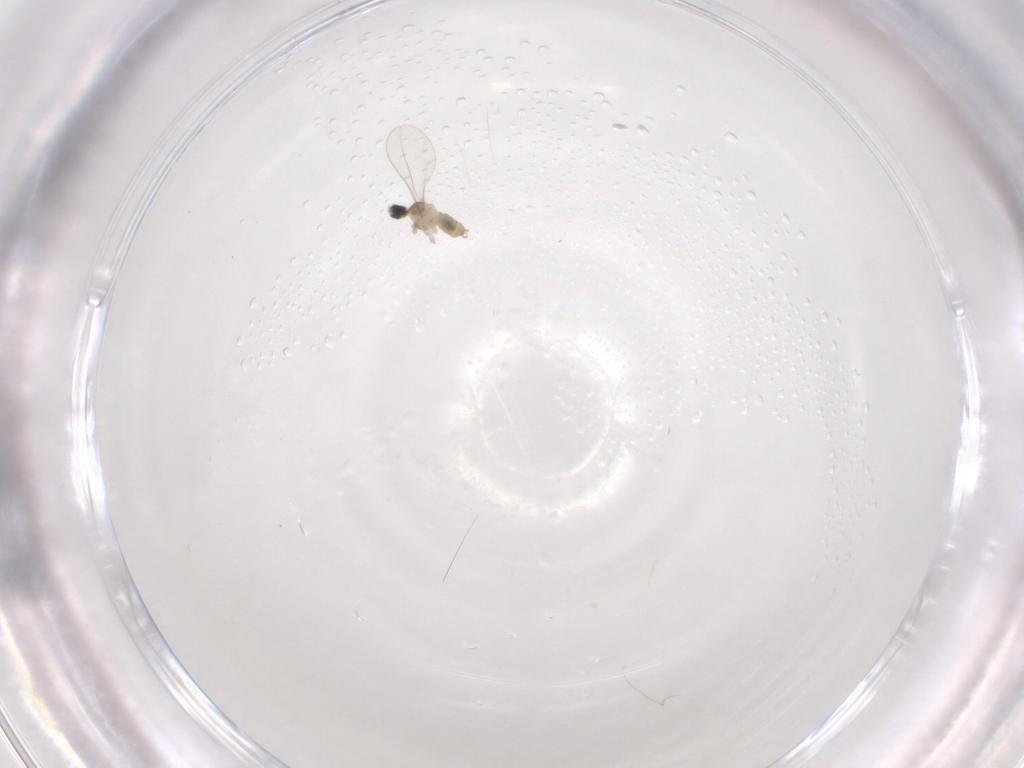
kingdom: Animalia
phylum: Arthropoda
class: Insecta
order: Diptera
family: Cecidomyiidae
